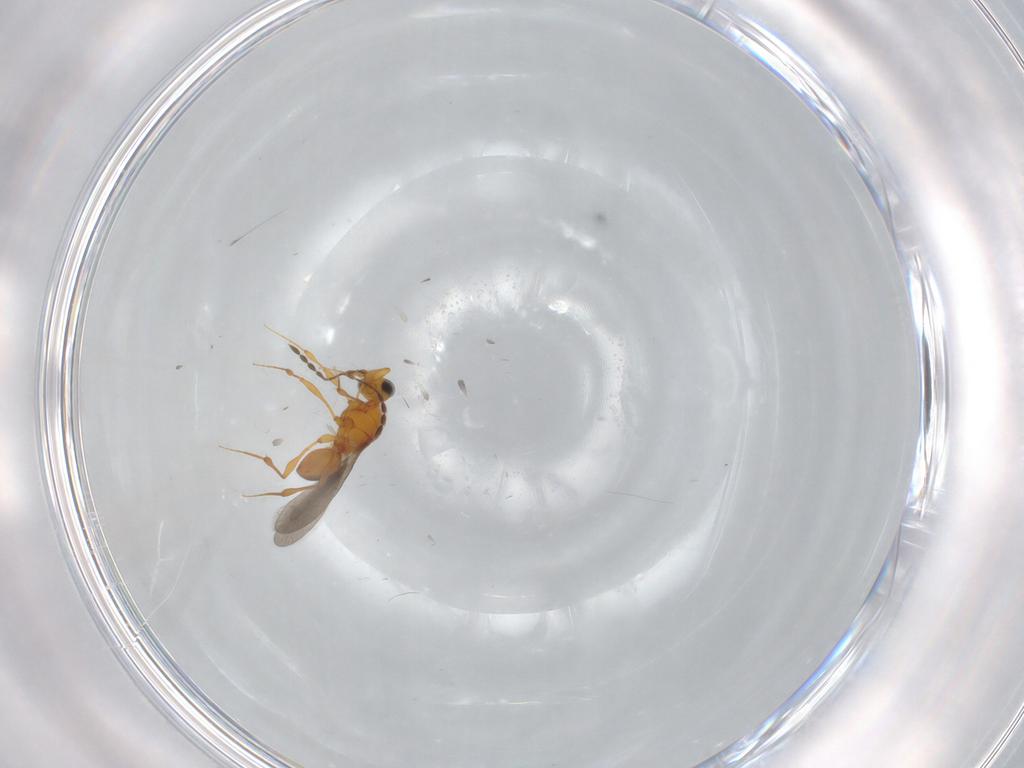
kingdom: Animalia
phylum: Arthropoda
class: Insecta
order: Hymenoptera
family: Platygastridae
